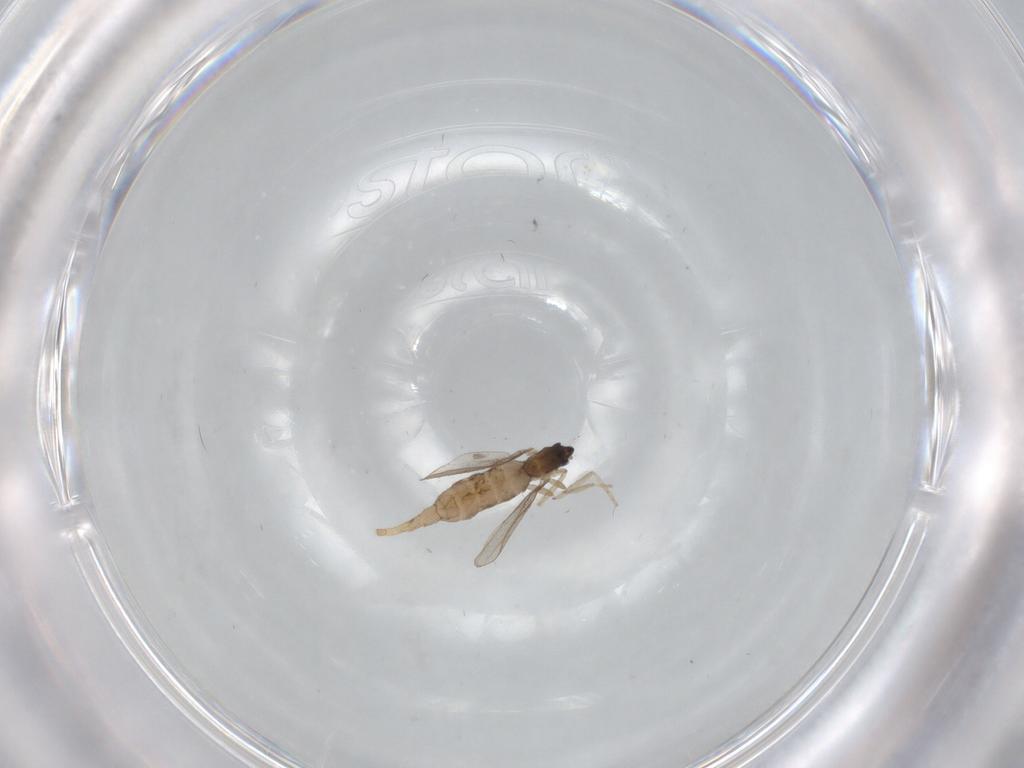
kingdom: Animalia
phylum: Arthropoda
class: Insecta
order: Diptera
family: Cecidomyiidae
